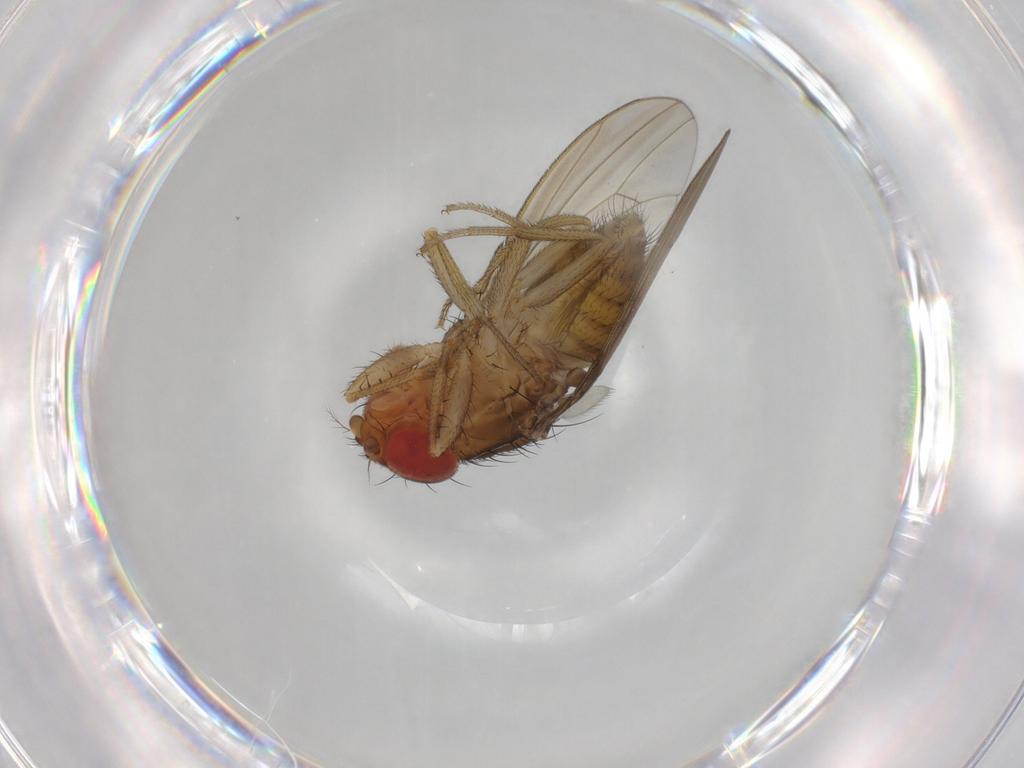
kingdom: Animalia
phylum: Arthropoda
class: Insecta
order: Diptera
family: Drosophilidae
